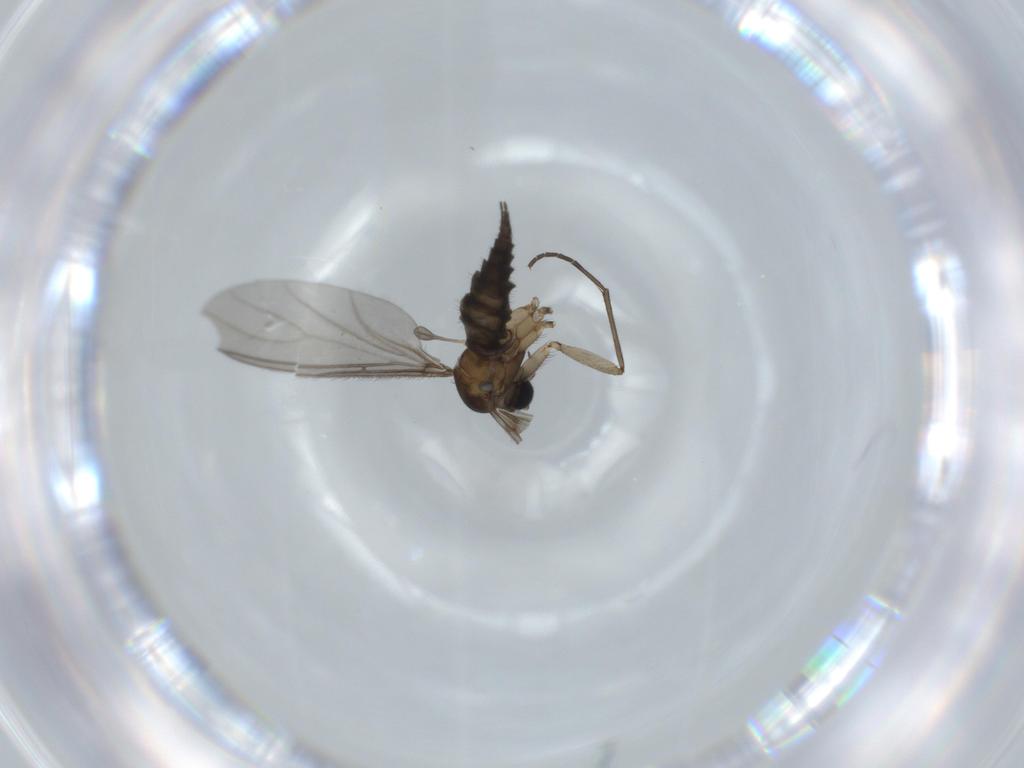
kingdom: Animalia
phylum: Arthropoda
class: Insecta
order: Diptera
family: Sciaridae
